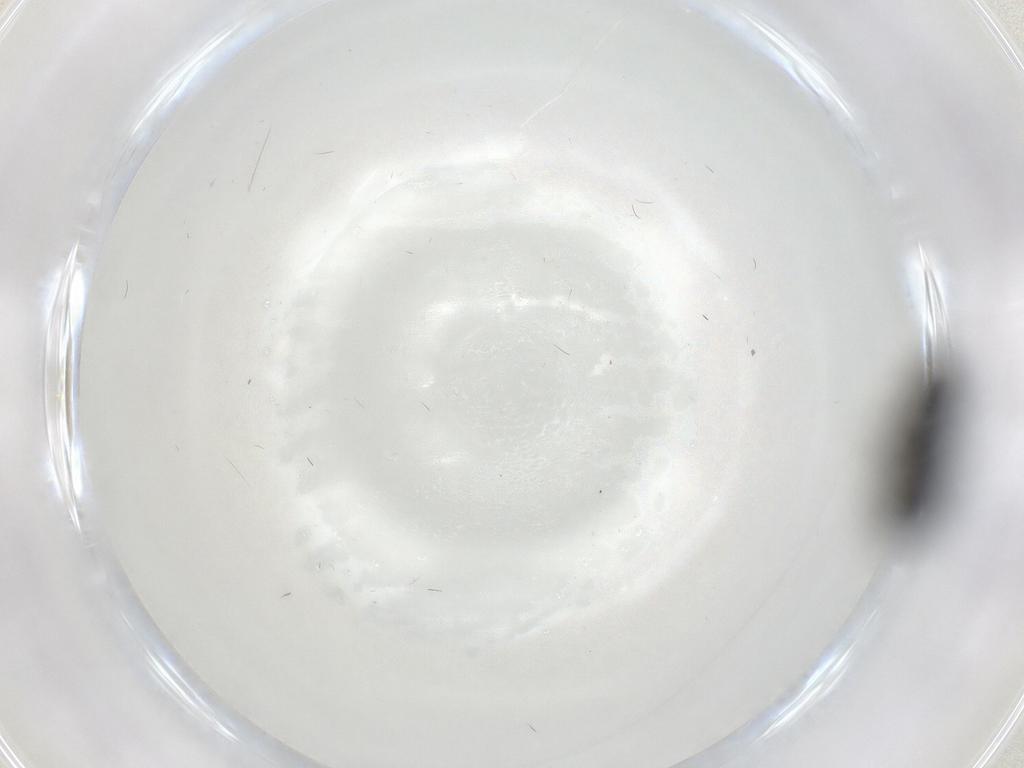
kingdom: Animalia
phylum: Arthropoda
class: Insecta
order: Diptera
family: Scatopsidae
